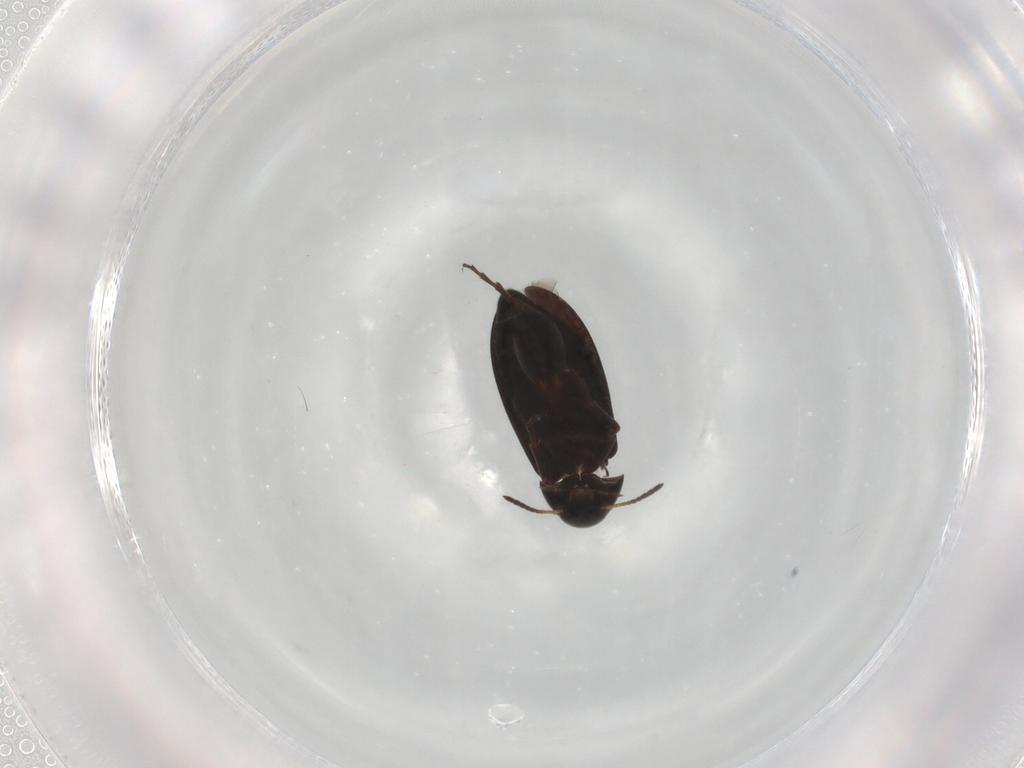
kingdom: Animalia
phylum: Arthropoda
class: Insecta
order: Coleoptera
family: Scraptiidae
